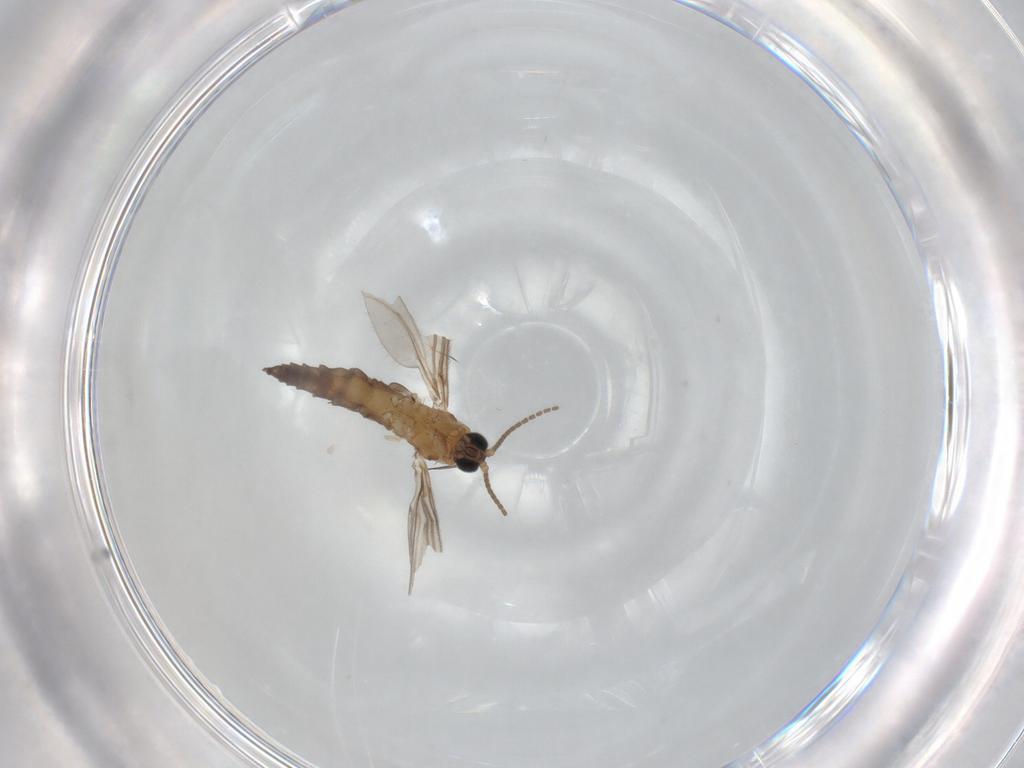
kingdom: Animalia
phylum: Arthropoda
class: Insecta
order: Diptera
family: Sciaridae
